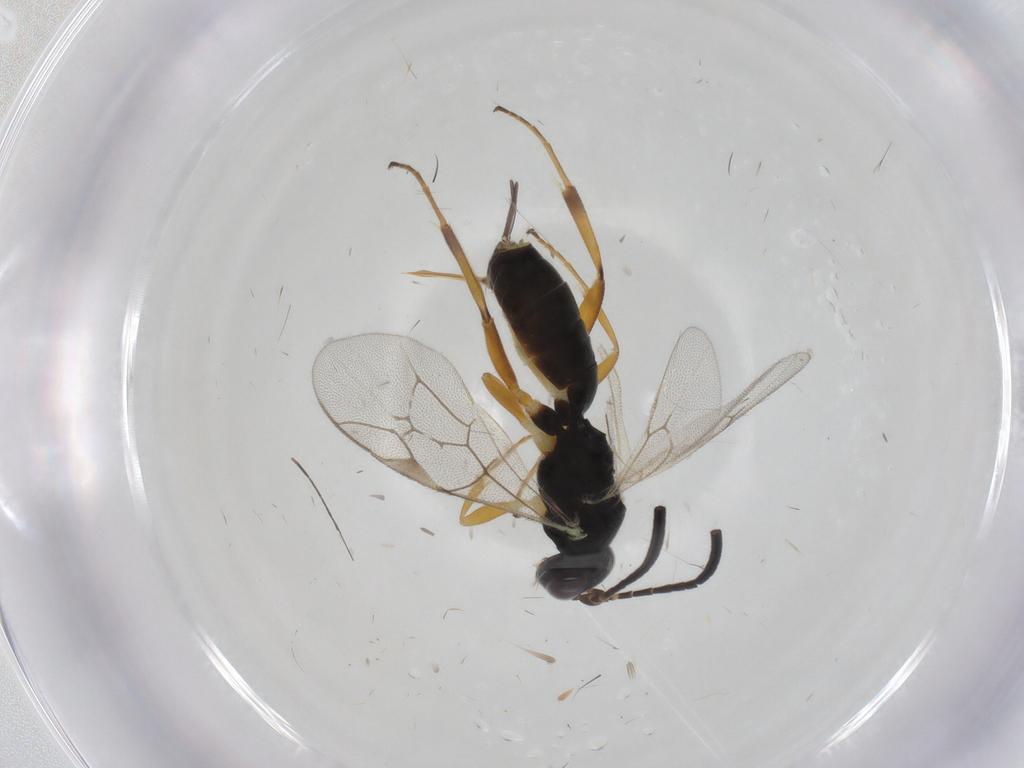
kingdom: Animalia
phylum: Arthropoda
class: Insecta
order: Hymenoptera
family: Ichneumonidae
